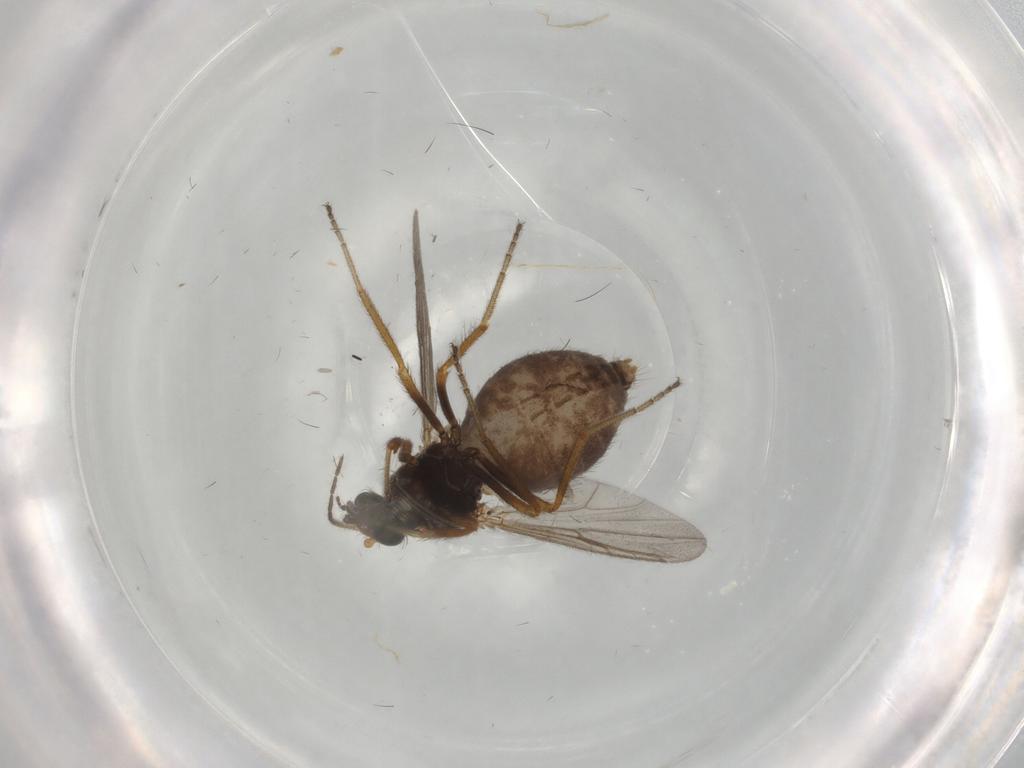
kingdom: Animalia
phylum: Arthropoda
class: Insecta
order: Diptera
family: Ceratopogonidae
